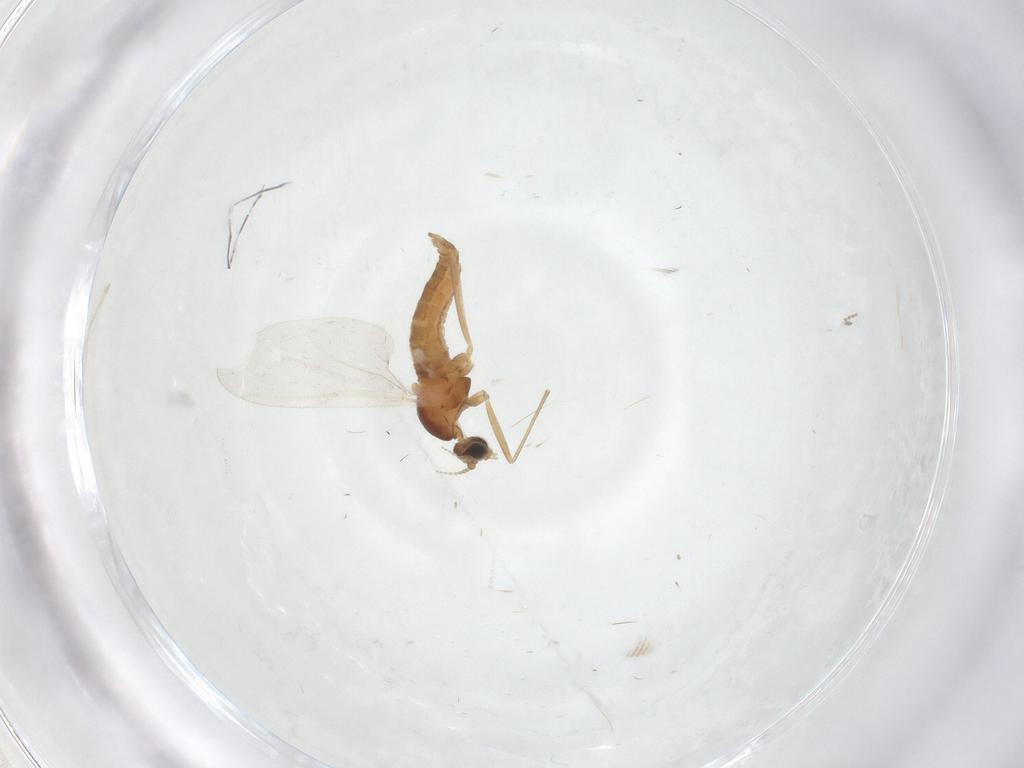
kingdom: Animalia
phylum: Arthropoda
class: Insecta
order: Diptera
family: Cecidomyiidae
